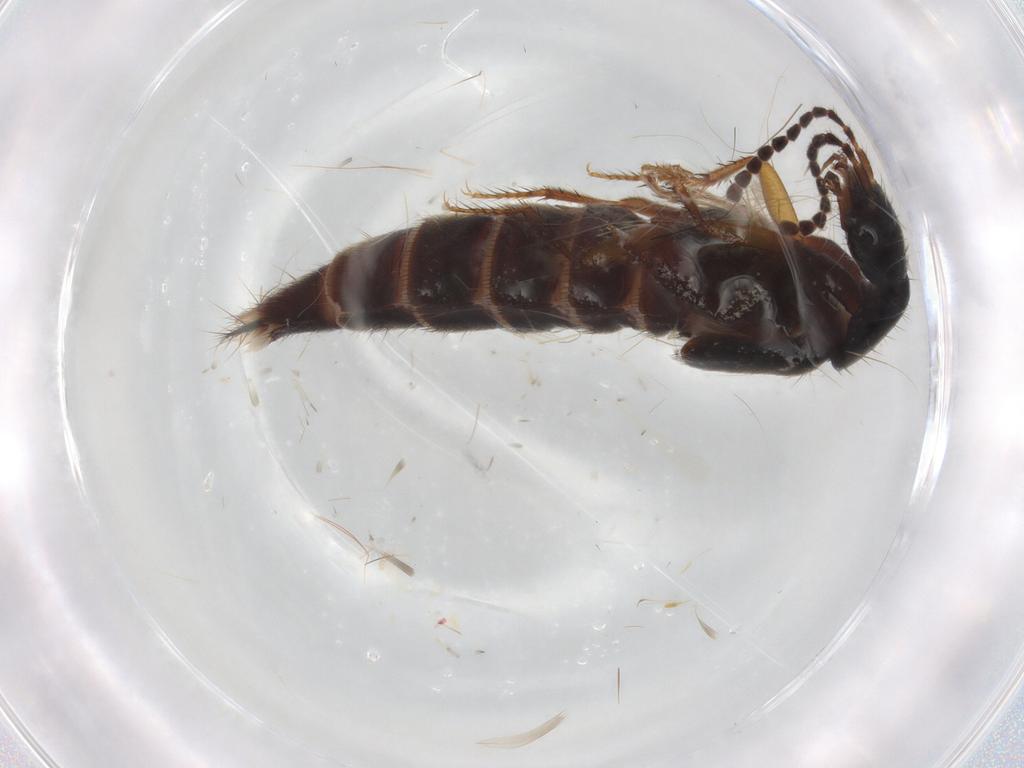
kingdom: Animalia
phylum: Arthropoda
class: Insecta
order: Coleoptera
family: Staphylinidae
